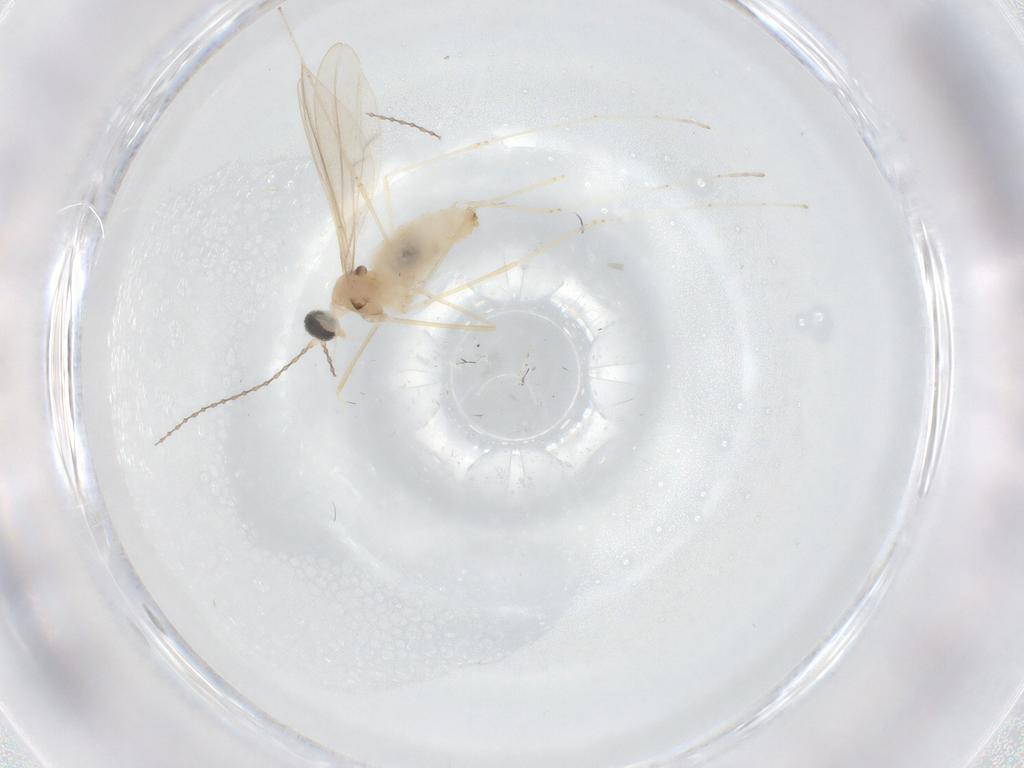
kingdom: Animalia
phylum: Arthropoda
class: Insecta
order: Diptera
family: Cecidomyiidae
